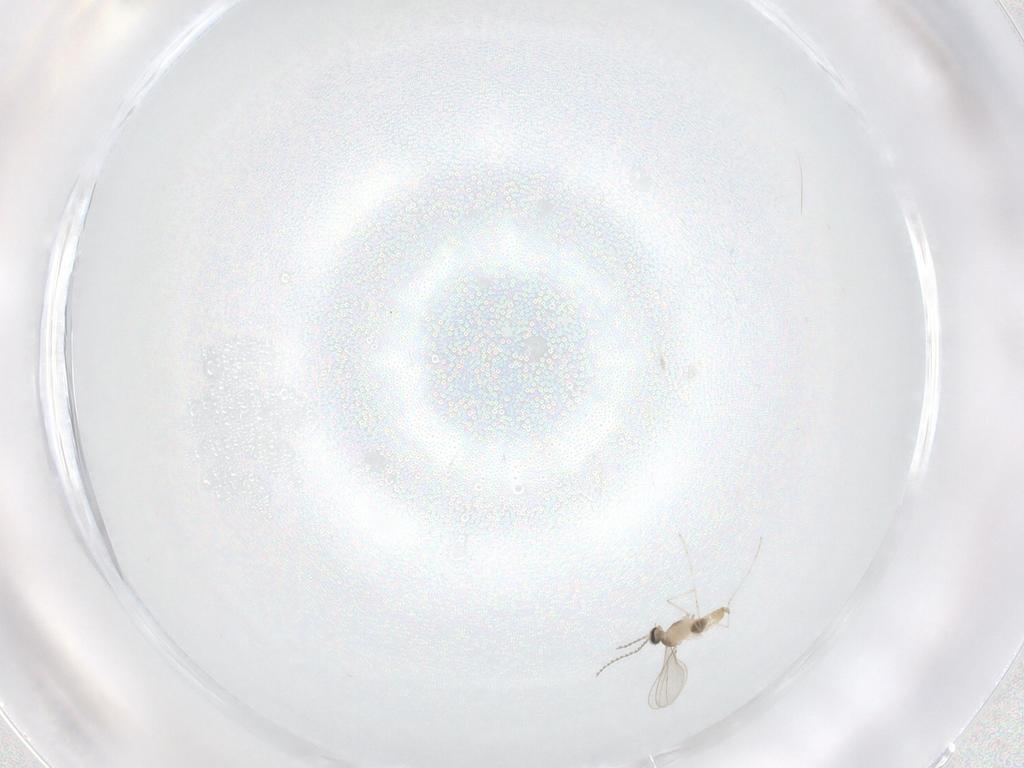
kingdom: Animalia
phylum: Arthropoda
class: Insecta
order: Diptera
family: Cecidomyiidae
